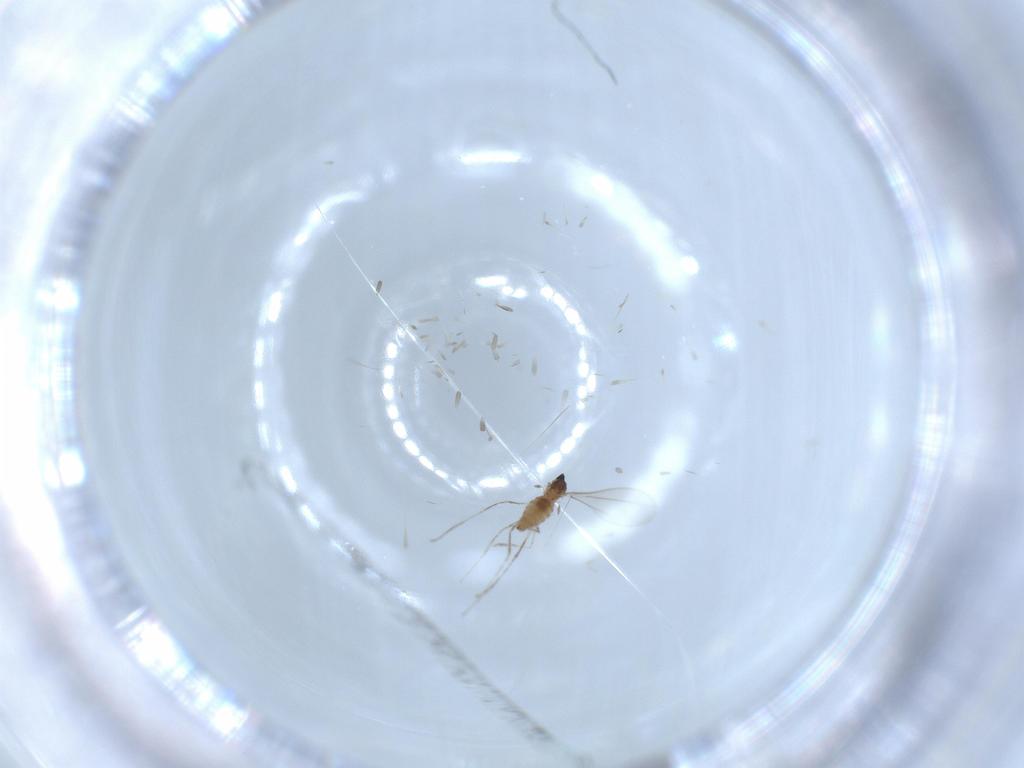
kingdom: Animalia
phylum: Arthropoda
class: Insecta
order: Diptera
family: Cecidomyiidae
